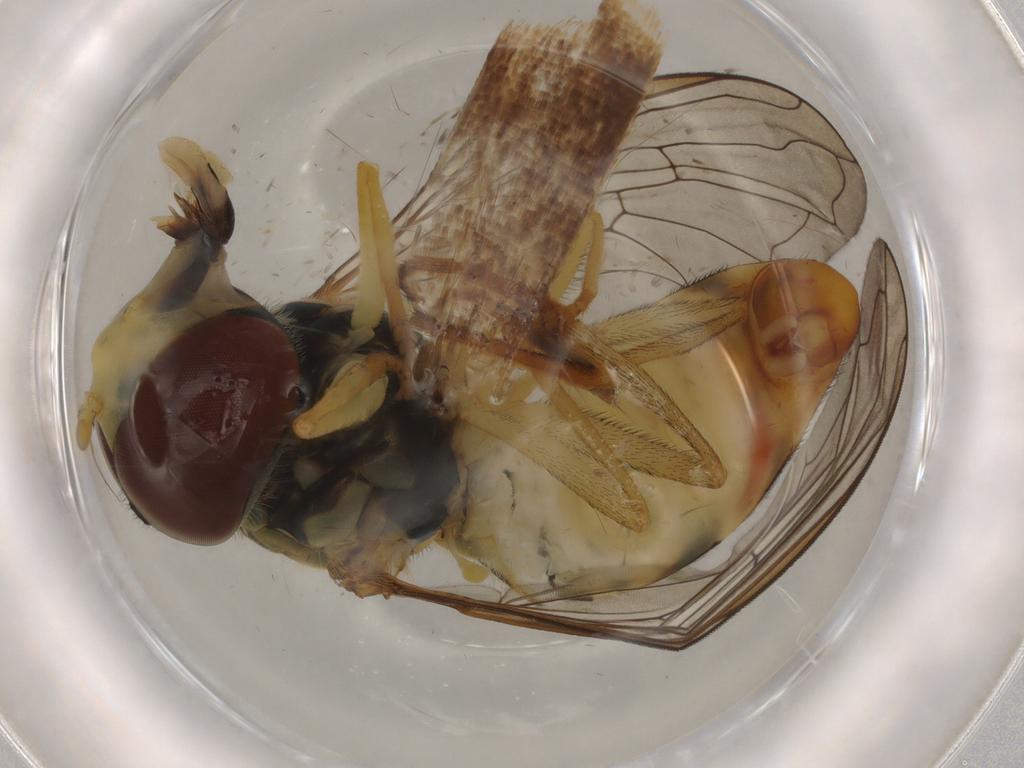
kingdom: Animalia
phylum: Arthropoda
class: Insecta
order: Diptera
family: Syrphidae
